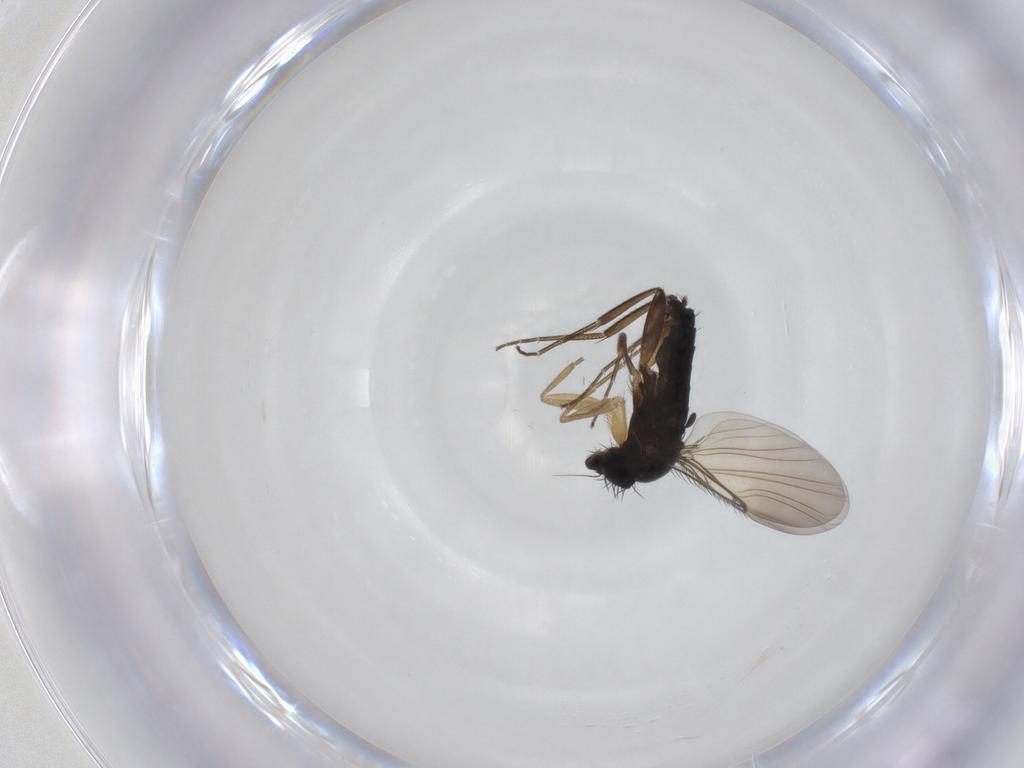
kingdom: Animalia
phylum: Arthropoda
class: Insecta
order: Diptera
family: Phoridae
